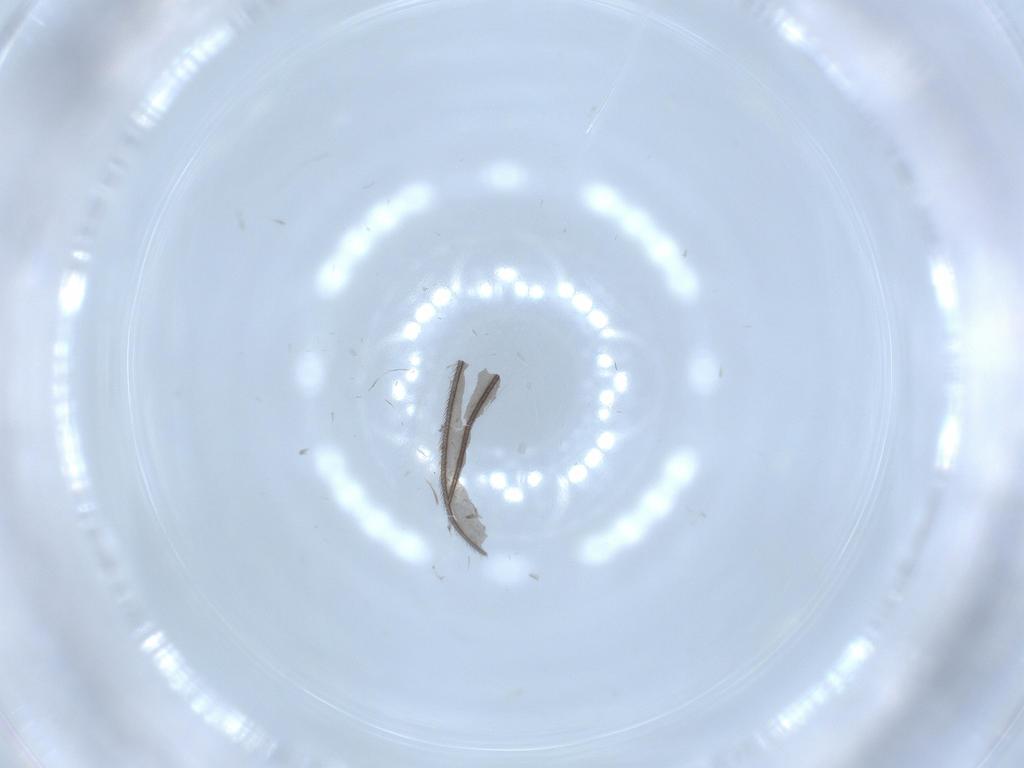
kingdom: Animalia
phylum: Arthropoda
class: Insecta
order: Diptera
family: Sciaridae
